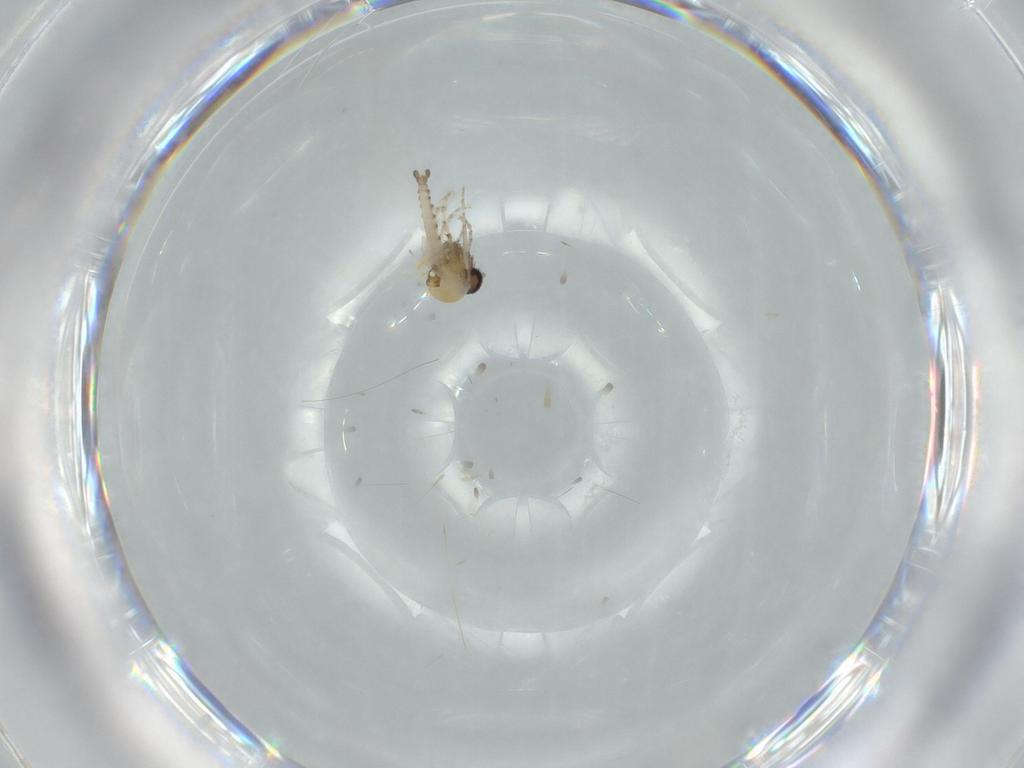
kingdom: Animalia
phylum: Arthropoda
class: Insecta
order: Diptera
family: Ceratopogonidae
